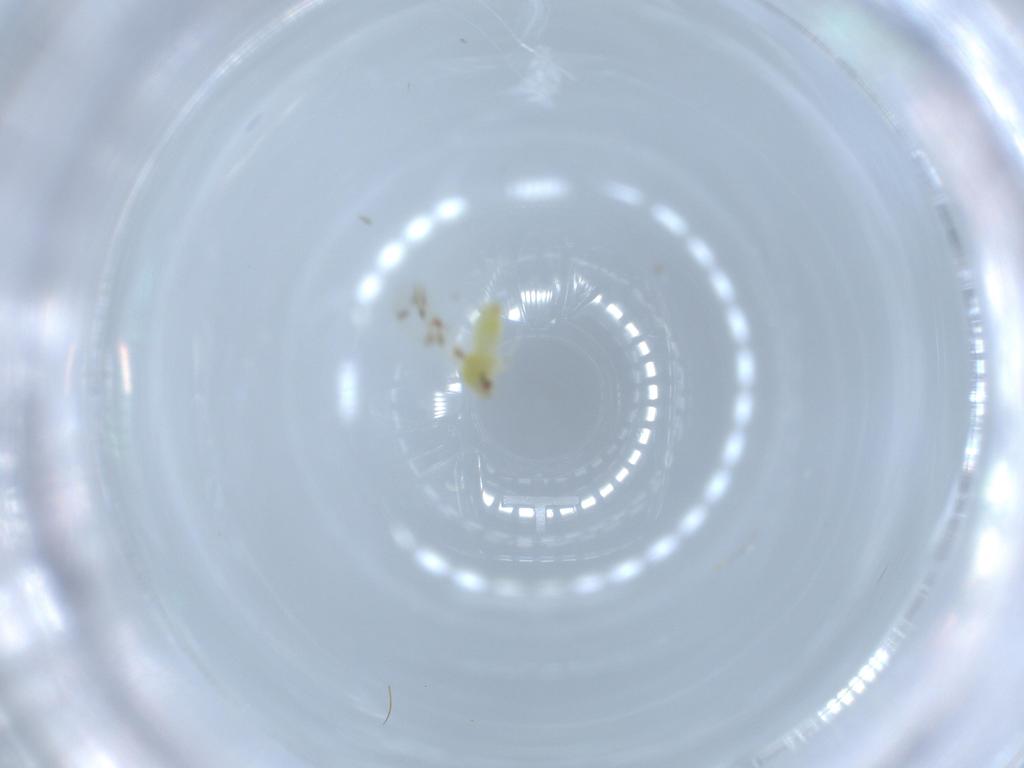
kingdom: Animalia
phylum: Arthropoda
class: Insecta
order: Hemiptera
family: Aleyrodidae
